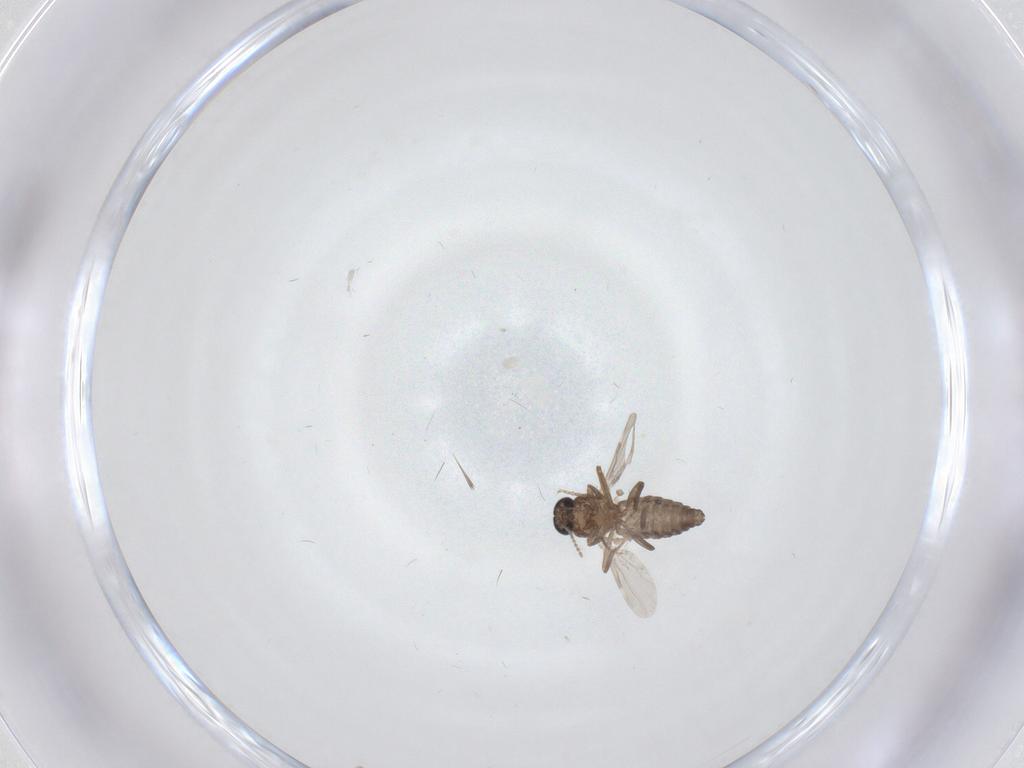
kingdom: Animalia
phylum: Arthropoda
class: Insecta
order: Diptera
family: Ceratopogonidae
